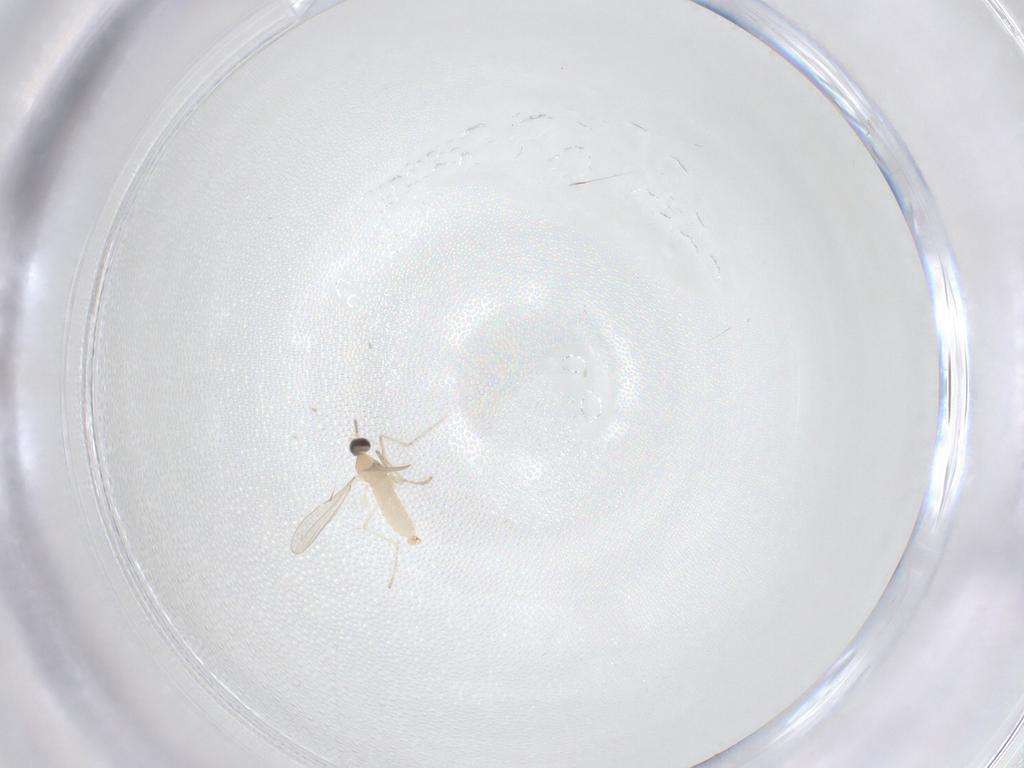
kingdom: Animalia
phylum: Arthropoda
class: Insecta
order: Diptera
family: Cecidomyiidae
